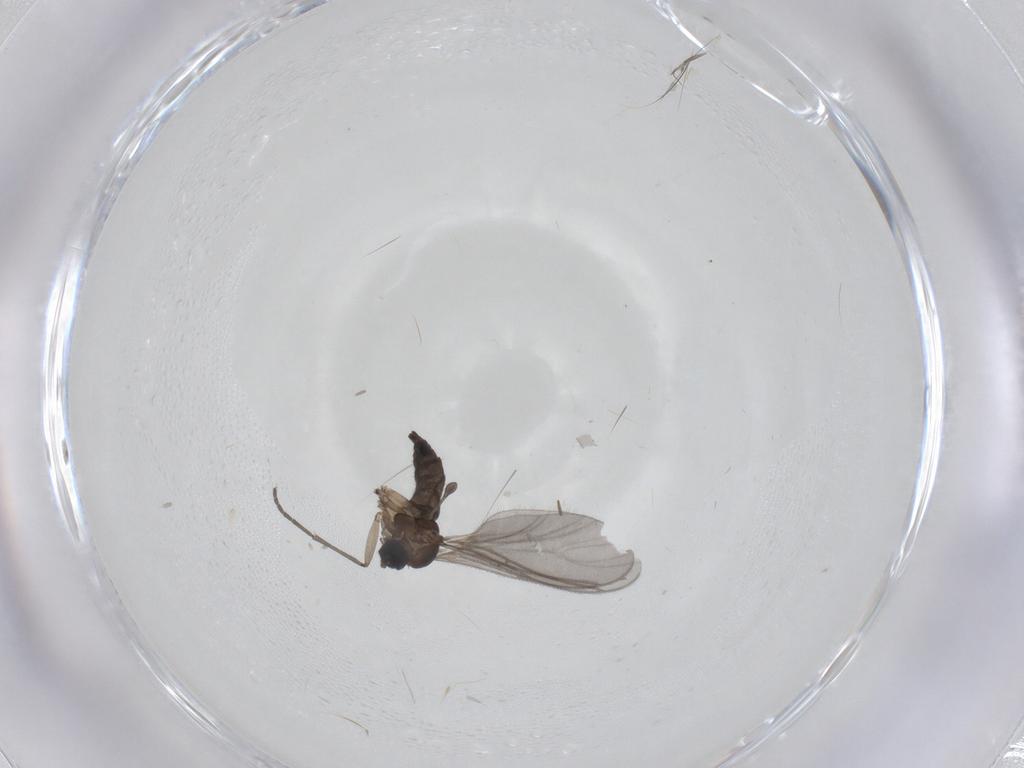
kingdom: Animalia
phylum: Arthropoda
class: Insecta
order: Diptera
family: Sciaridae
